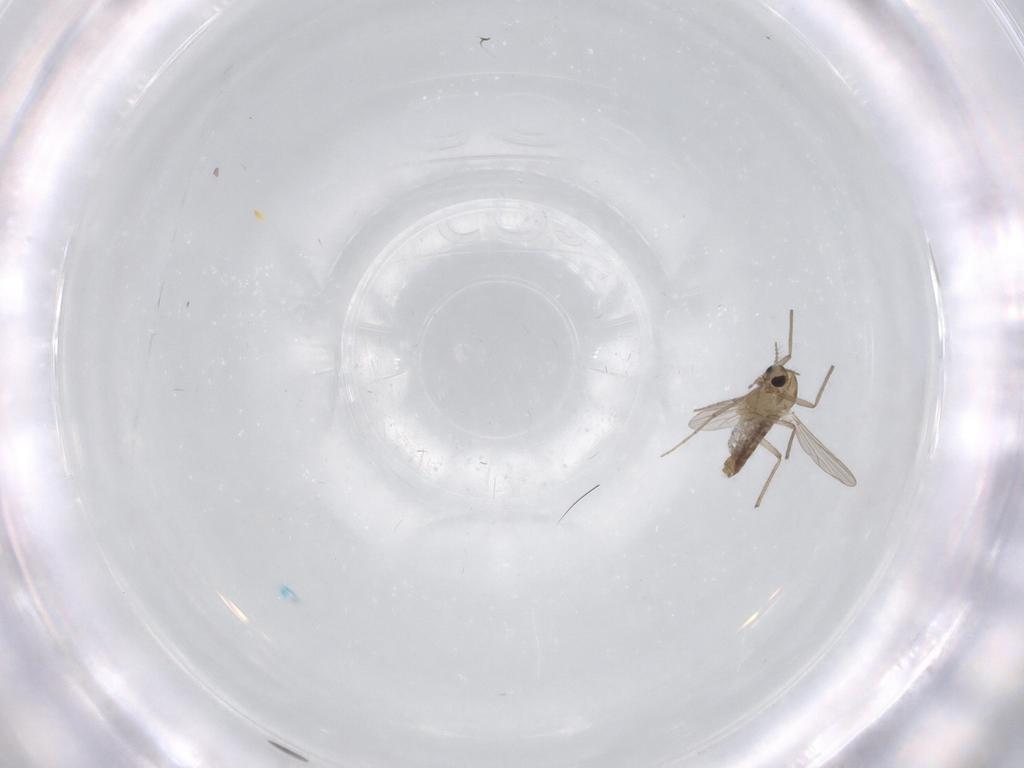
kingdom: Animalia
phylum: Arthropoda
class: Insecta
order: Diptera
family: Chironomidae
